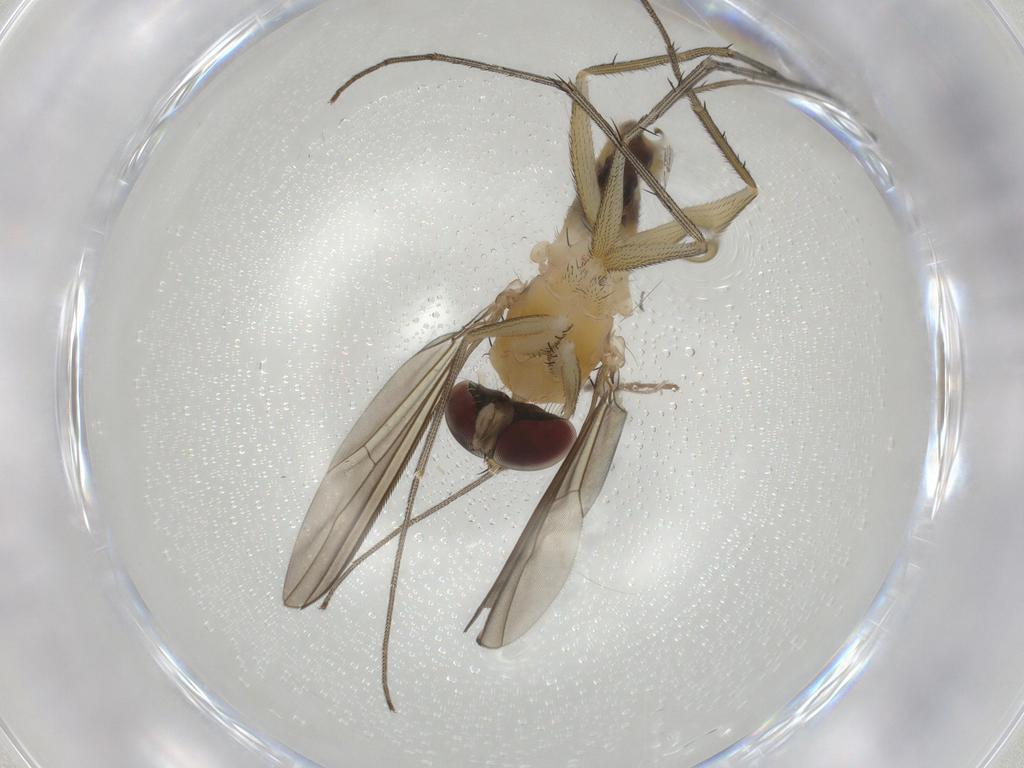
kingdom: Animalia
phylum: Arthropoda
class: Insecta
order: Diptera
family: Dolichopodidae
